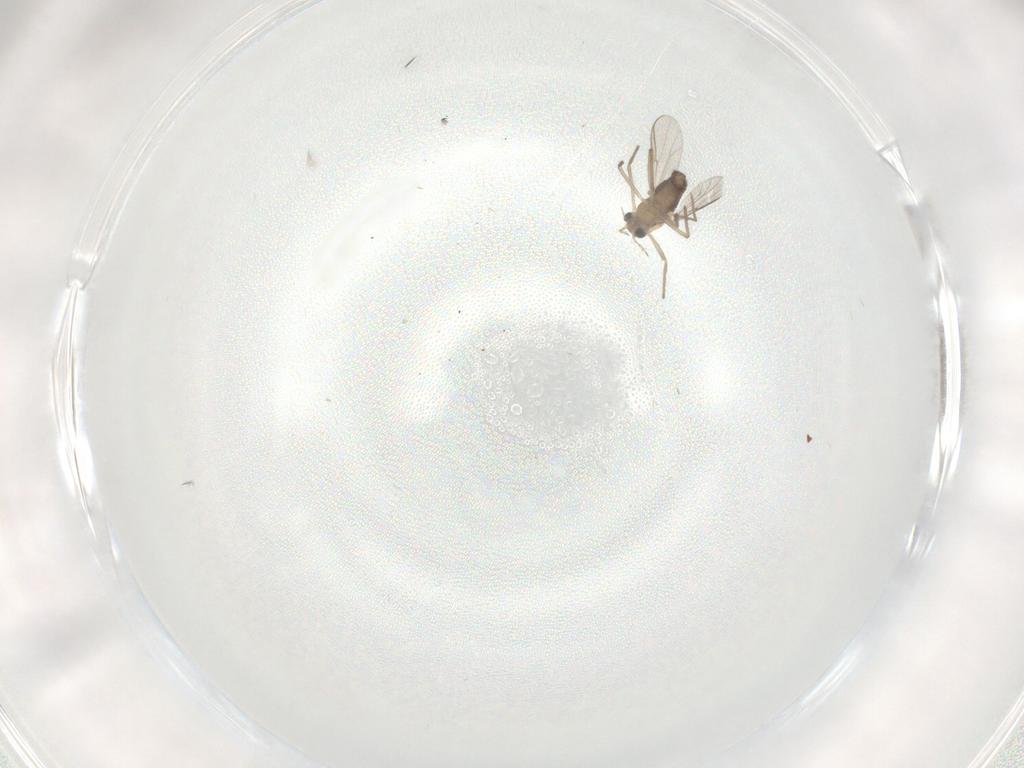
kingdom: Animalia
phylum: Arthropoda
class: Insecta
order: Diptera
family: Chironomidae
